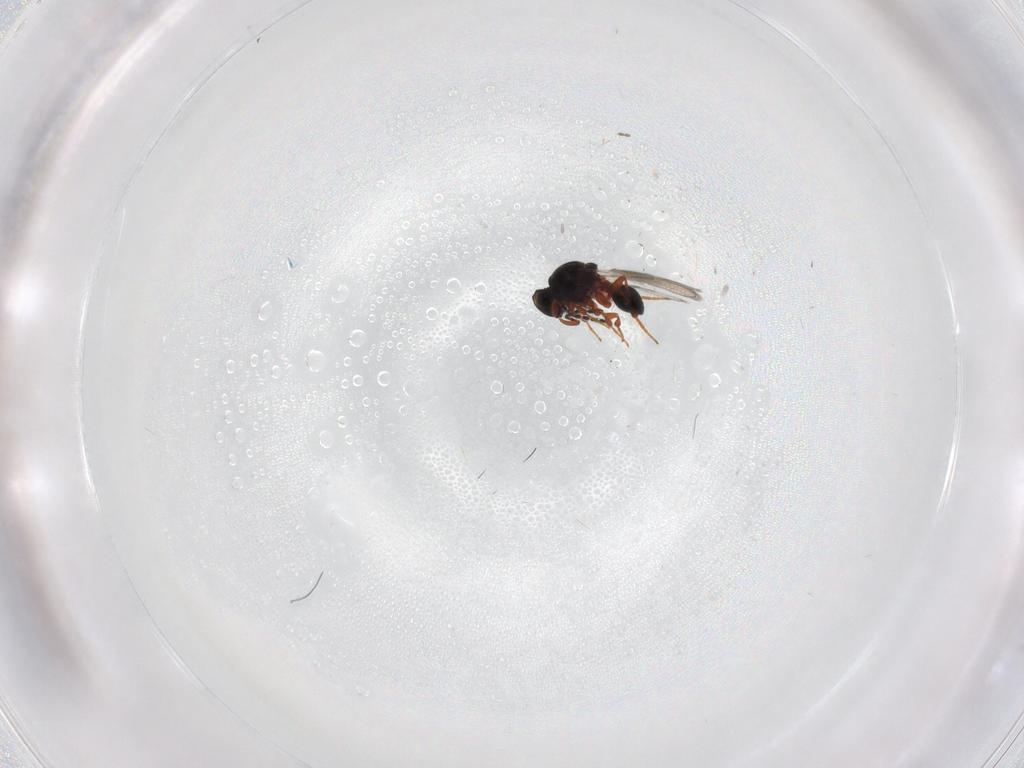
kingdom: Animalia
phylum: Arthropoda
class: Insecta
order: Hymenoptera
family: Platygastridae
